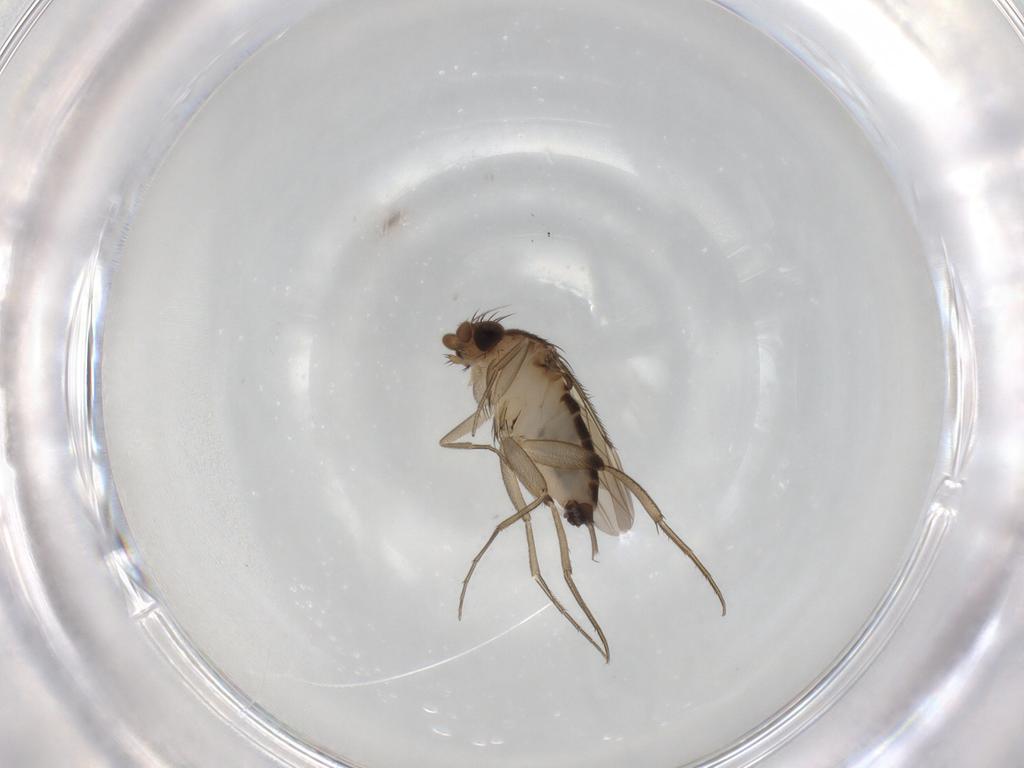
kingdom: Animalia
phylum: Arthropoda
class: Insecta
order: Diptera
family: Phoridae
